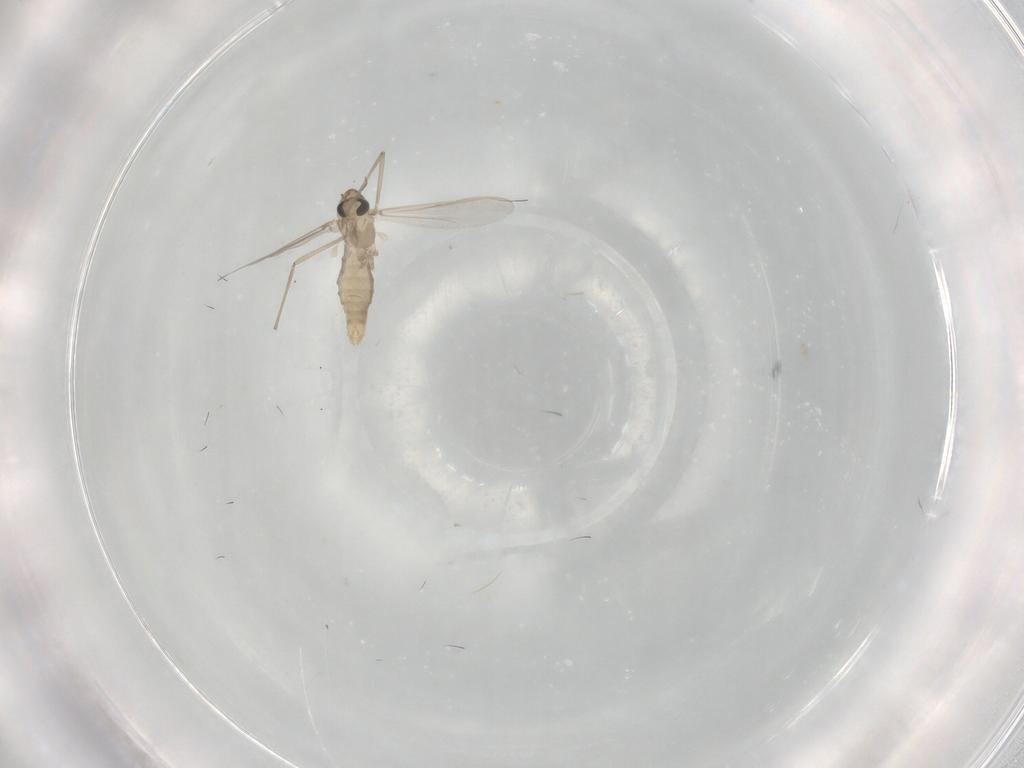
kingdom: Animalia
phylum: Arthropoda
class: Insecta
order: Diptera
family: Chironomidae
